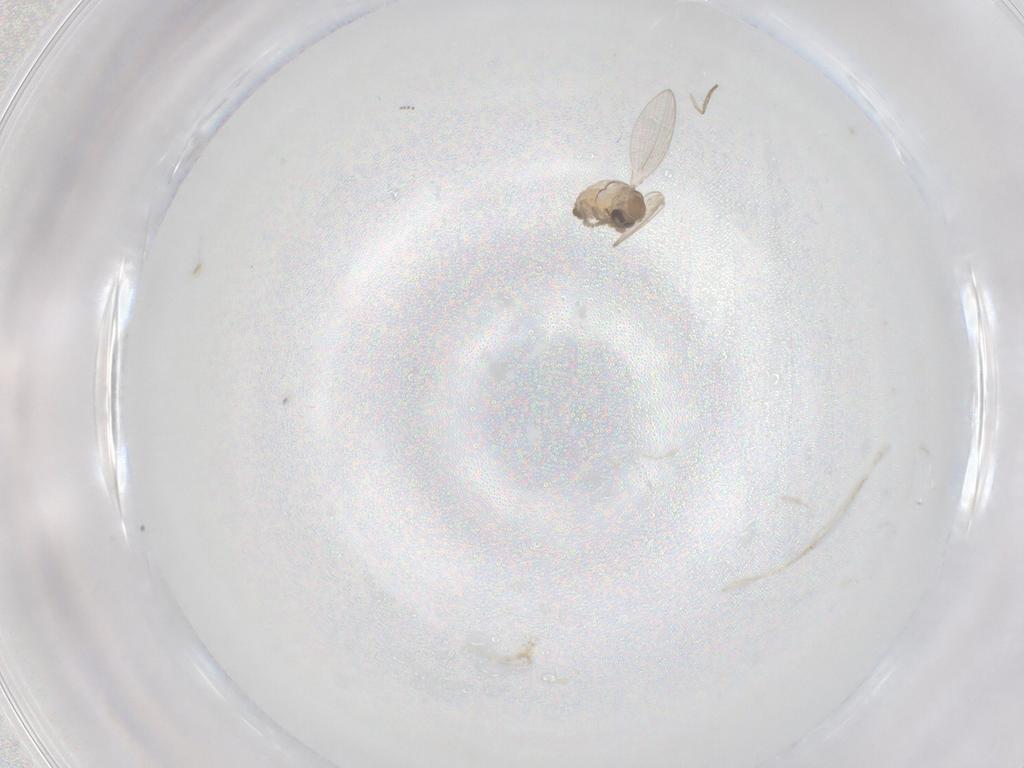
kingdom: Animalia
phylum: Arthropoda
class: Insecta
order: Diptera
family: Psychodidae
